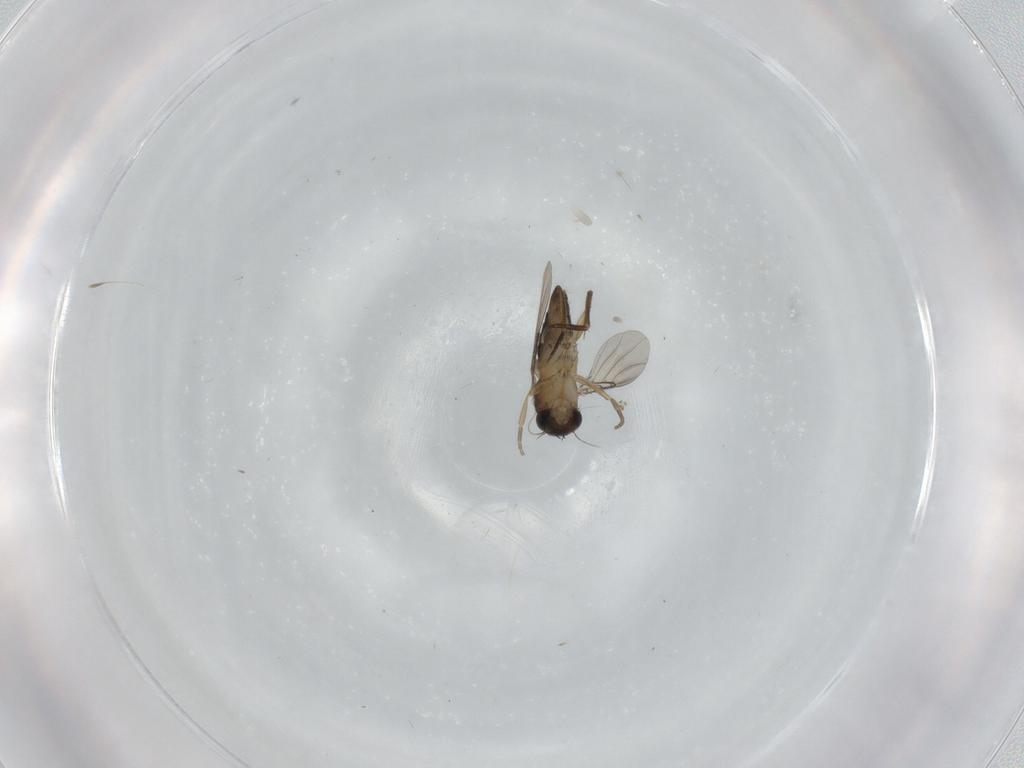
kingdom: Animalia
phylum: Arthropoda
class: Insecta
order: Diptera
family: Phoridae
